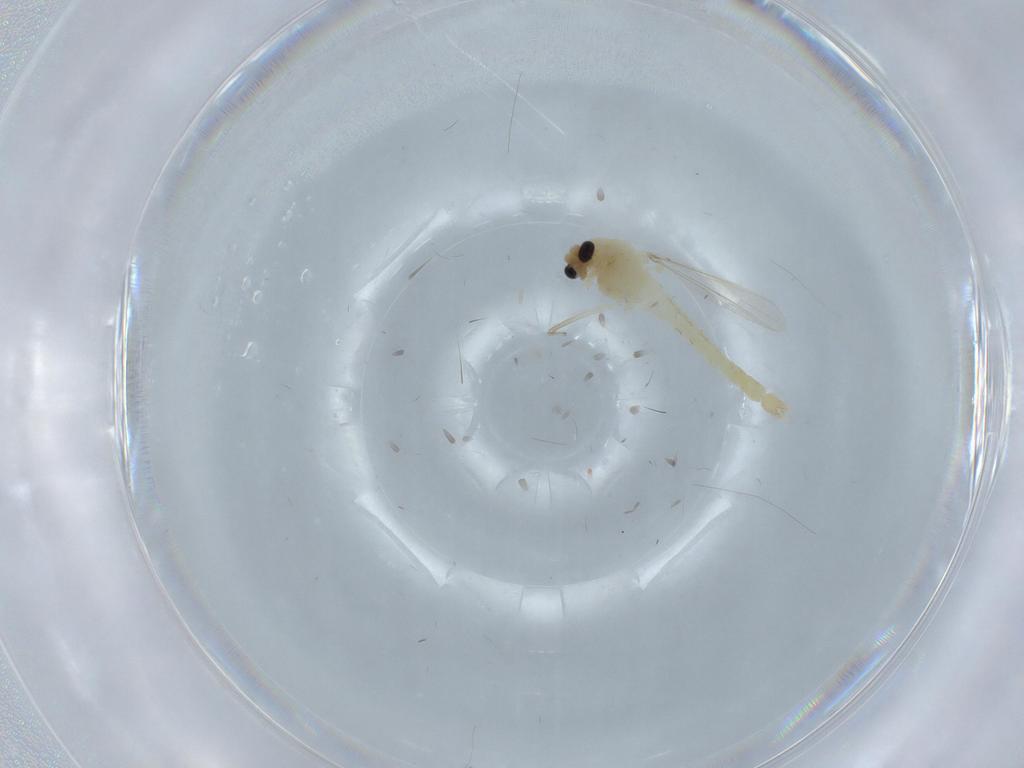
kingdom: Animalia
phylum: Arthropoda
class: Insecta
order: Diptera
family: Chironomidae
